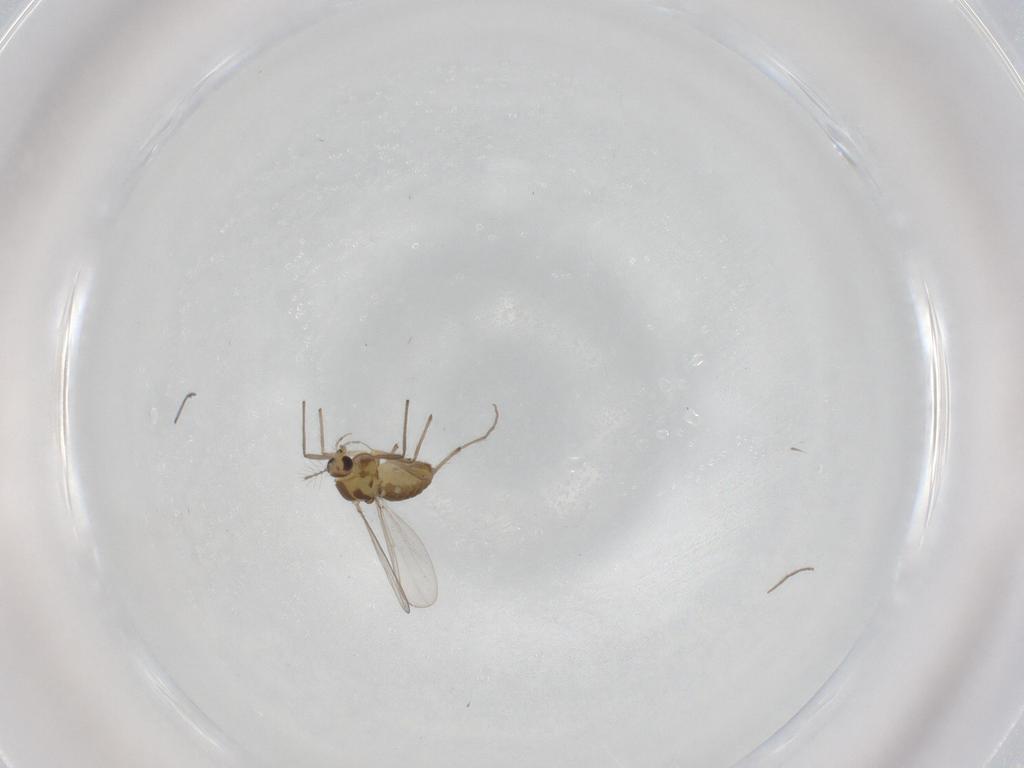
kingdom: Animalia
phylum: Arthropoda
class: Insecta
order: Diptera
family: Chironomidae
